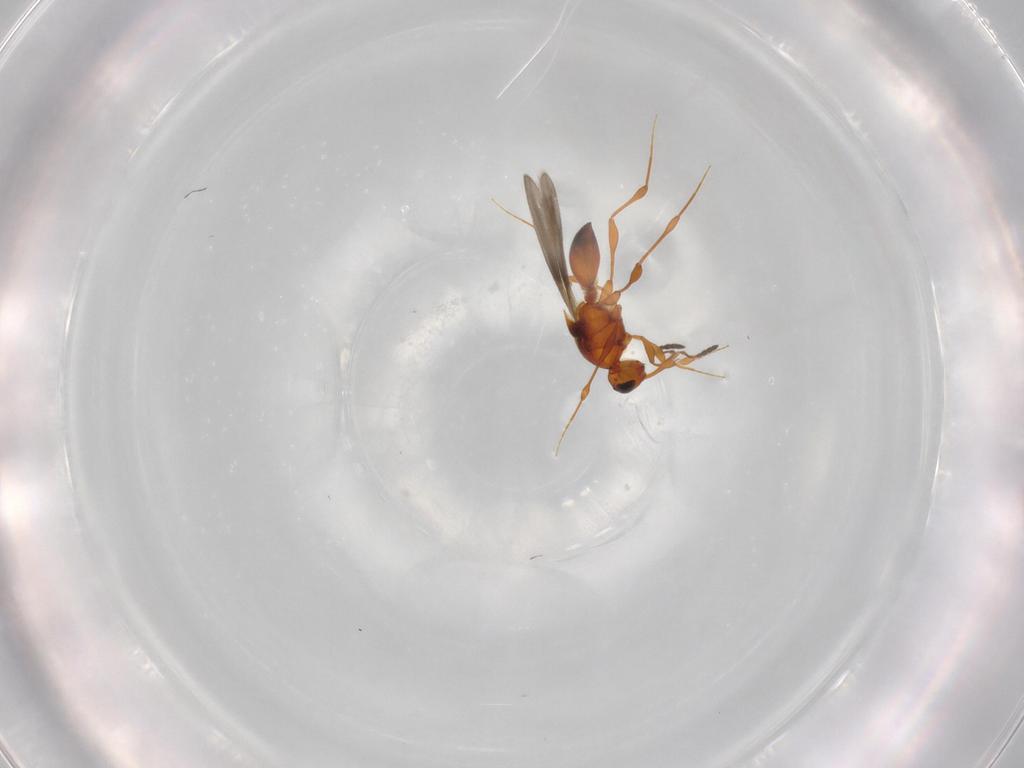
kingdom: Animalia
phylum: Arthropoda
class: Insecta
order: Hymenoptera
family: Platygastridae
